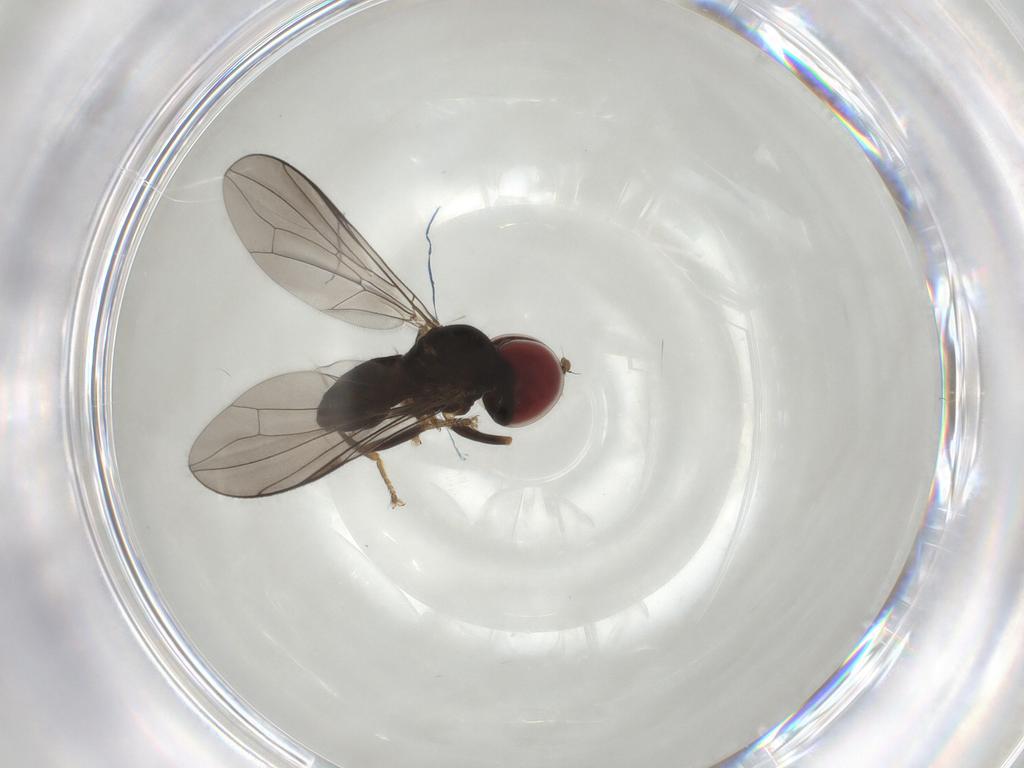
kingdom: Animalia
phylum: Arthropoda
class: Insecta
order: Diptera
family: Pipunculidae
